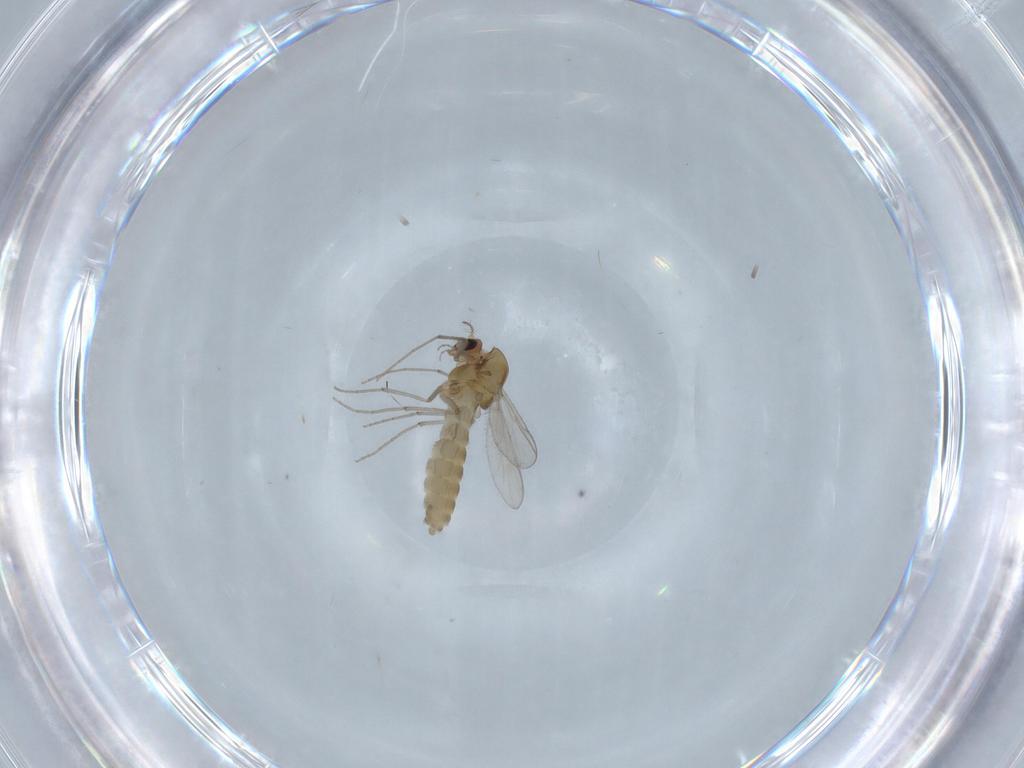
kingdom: Animalia
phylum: Arthropoda
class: Insecta
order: Diptera
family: Chironomidae
